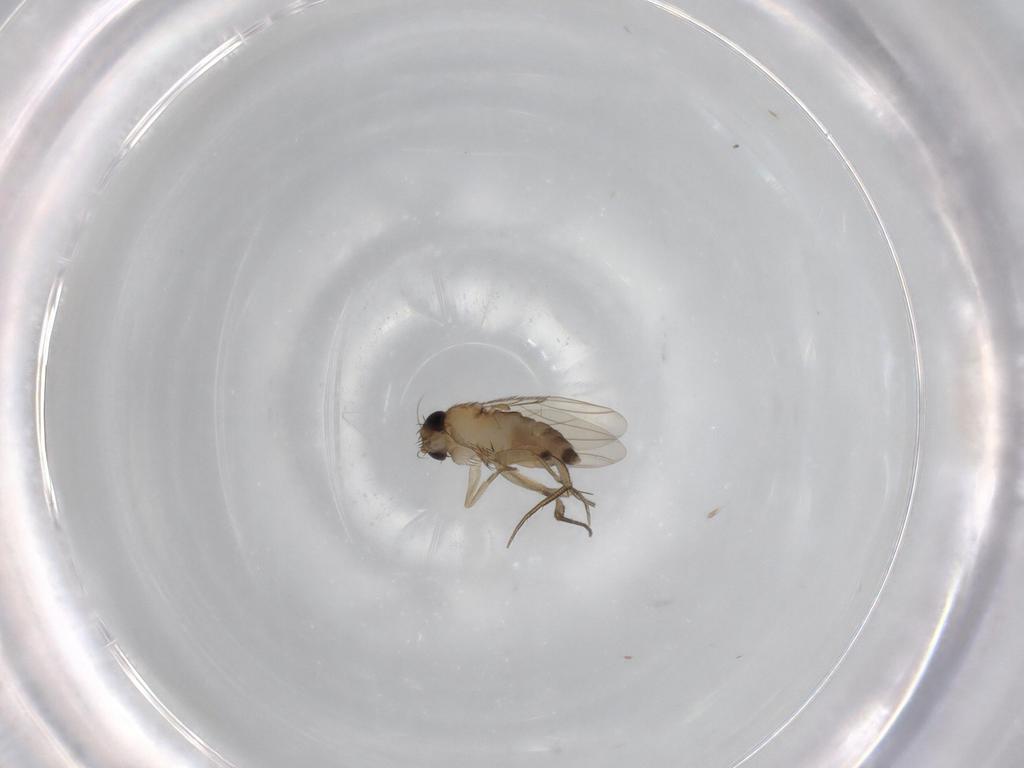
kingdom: Animalia
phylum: Arthropoda
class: Insecta
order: Diptera
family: Phoridae
